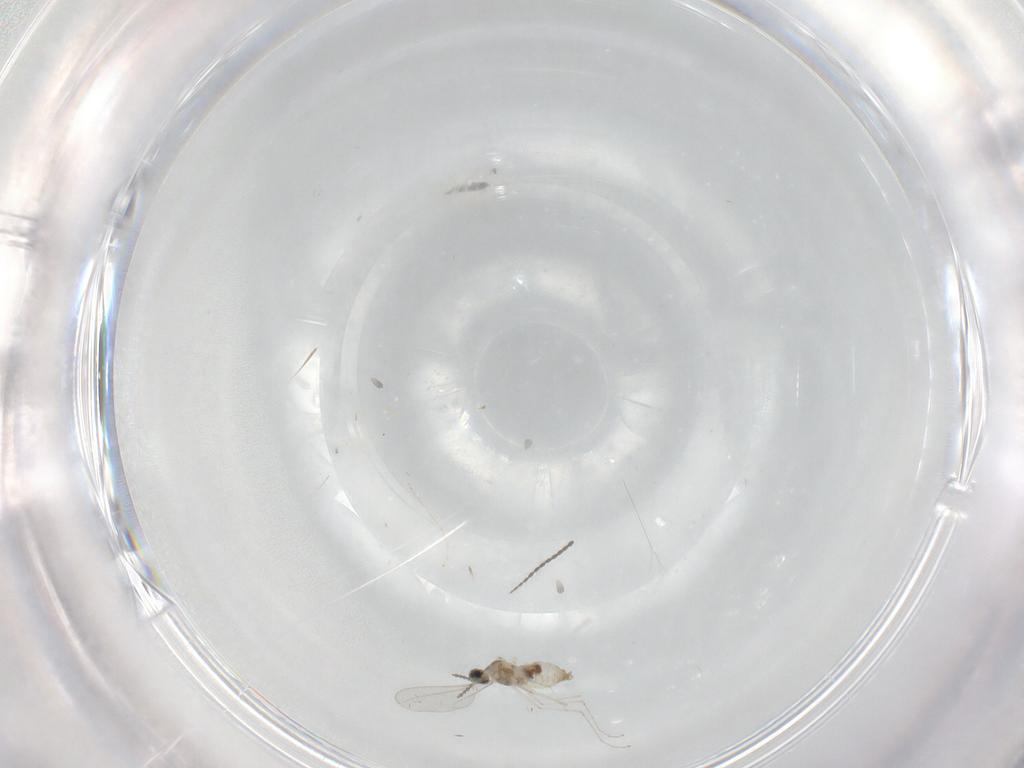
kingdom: Animalia
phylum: Arthropoda
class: Insecta
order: Diptera
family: Cecidomyiidae
